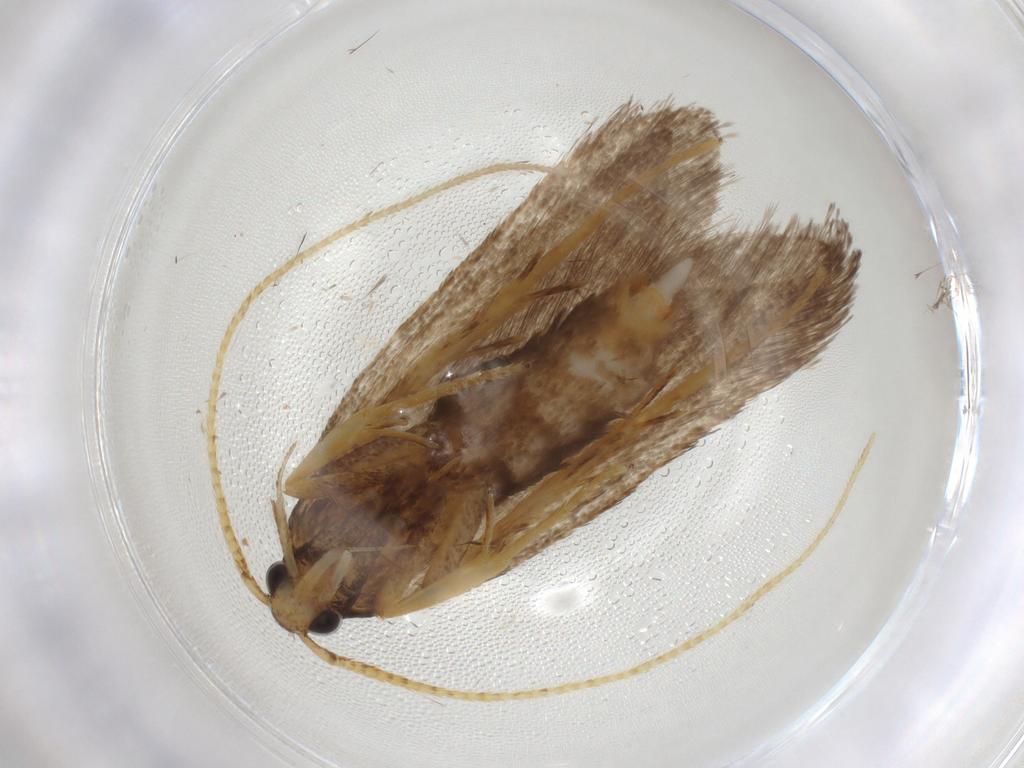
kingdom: Animalia
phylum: Arthropoda
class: Insecta
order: Lepidoptera
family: Lecithoceridae
